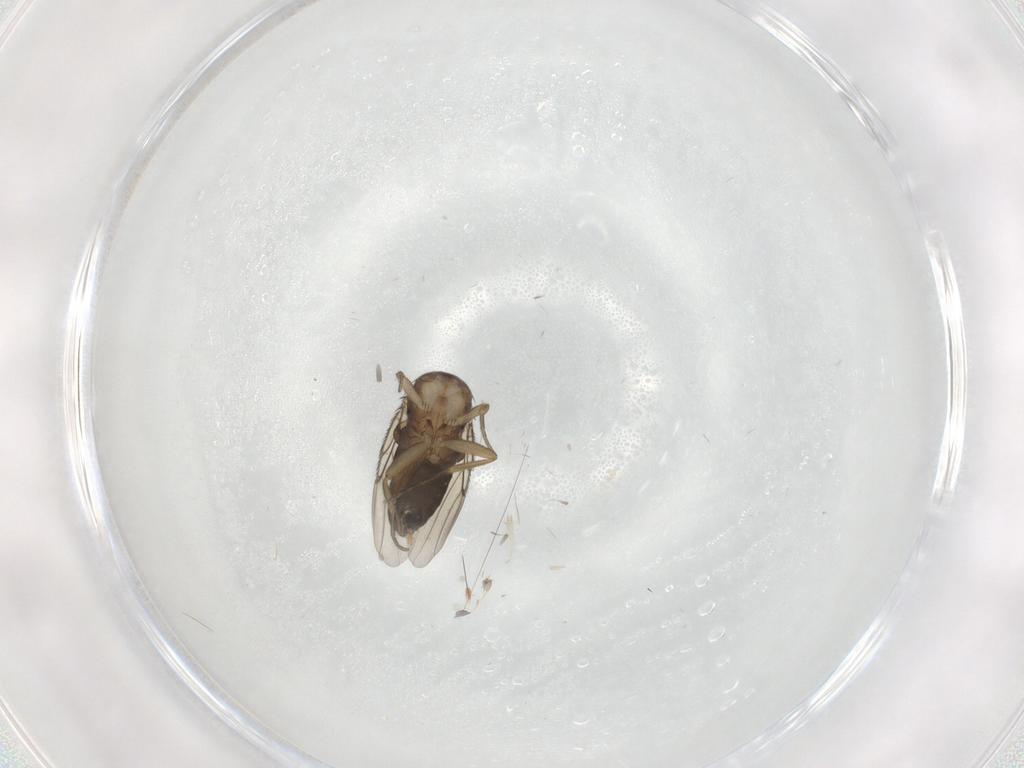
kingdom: Animalia
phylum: Arthropoda
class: Insecta
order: Diptera
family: Phoridae
